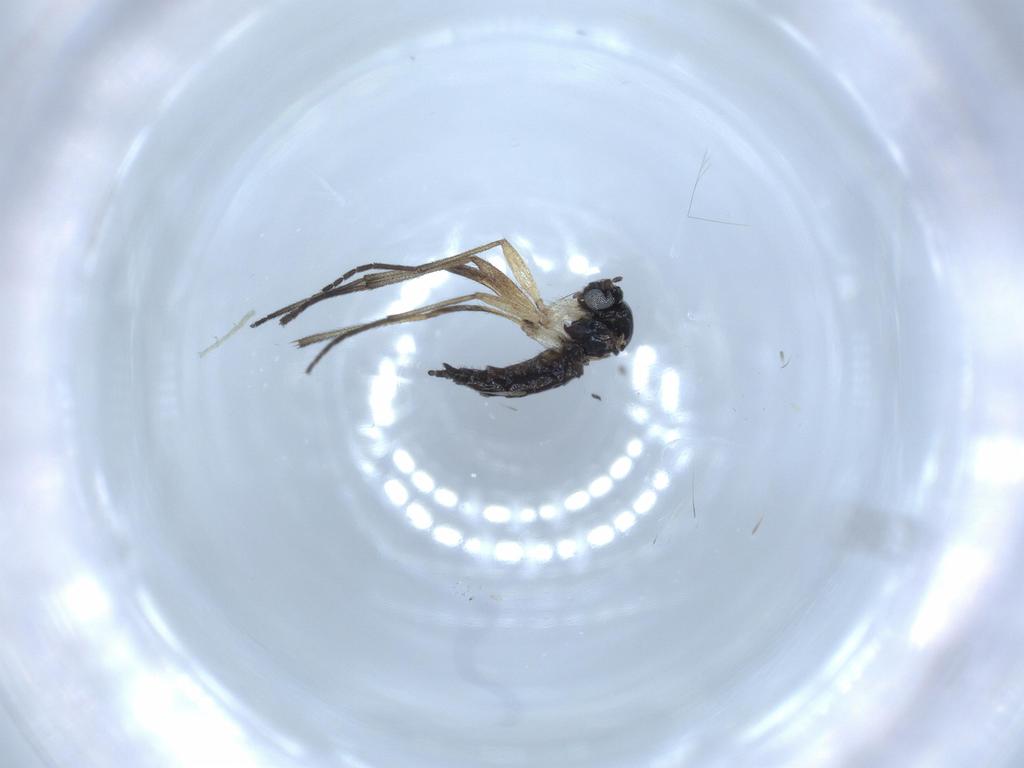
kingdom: Animalia
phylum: Arthropoda
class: Insecta
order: Diptera
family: Sciaridae
